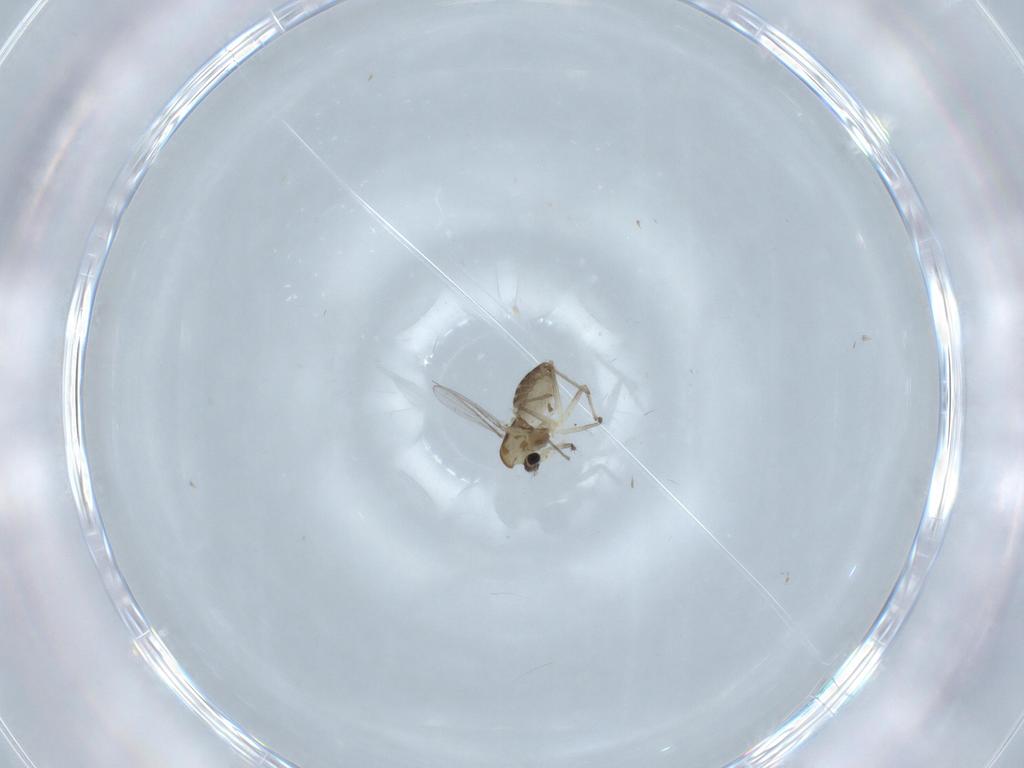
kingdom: Animalia
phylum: Arthropoda
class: Insecta
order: Diptera
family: Chironomidae
